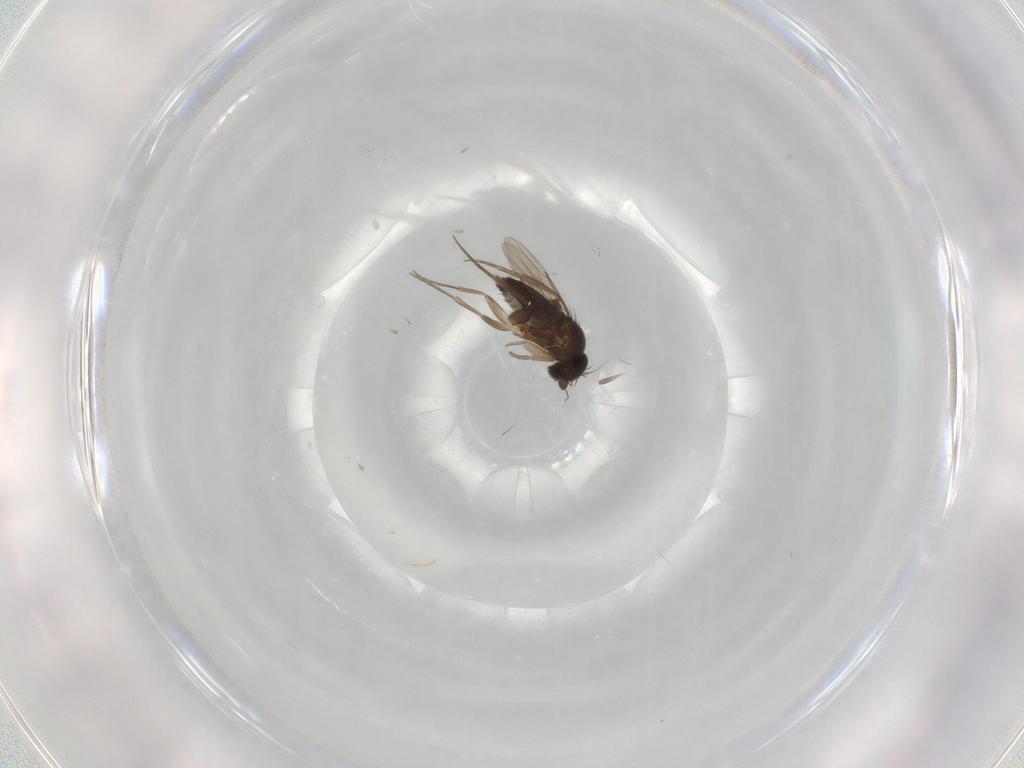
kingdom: Animalia
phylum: Arthropoda
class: Insecta
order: Diptera
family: Phoridae
